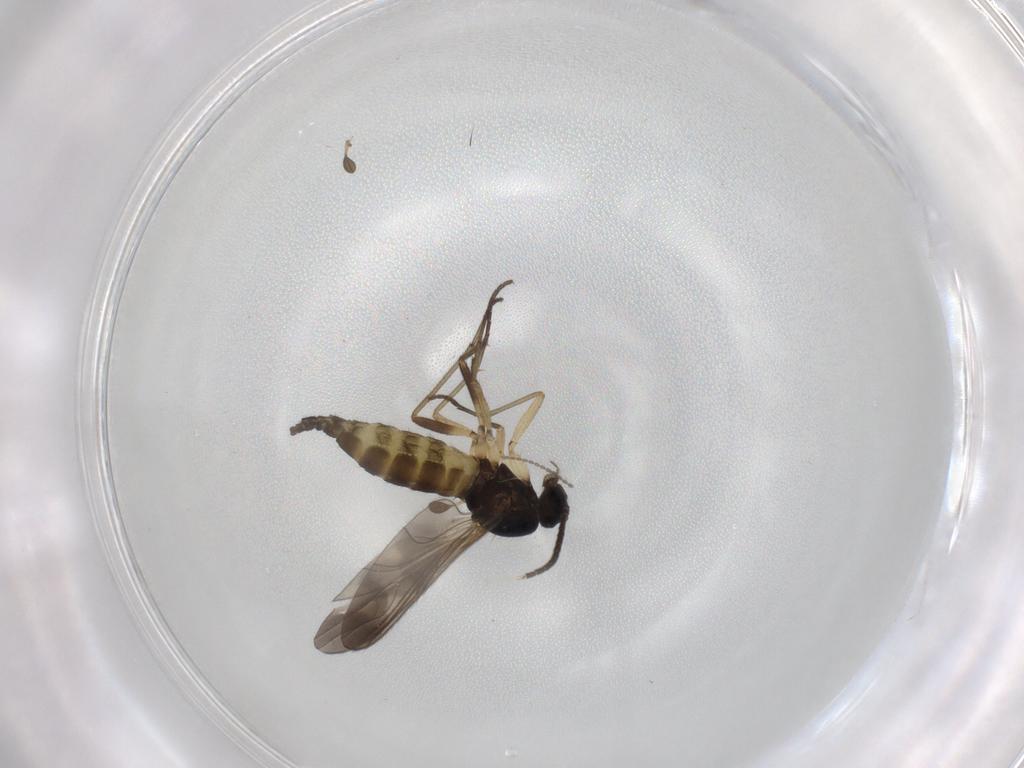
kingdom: Animalia
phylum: Arthropoda
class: Insecta
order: Diptera
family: Sciaridae
